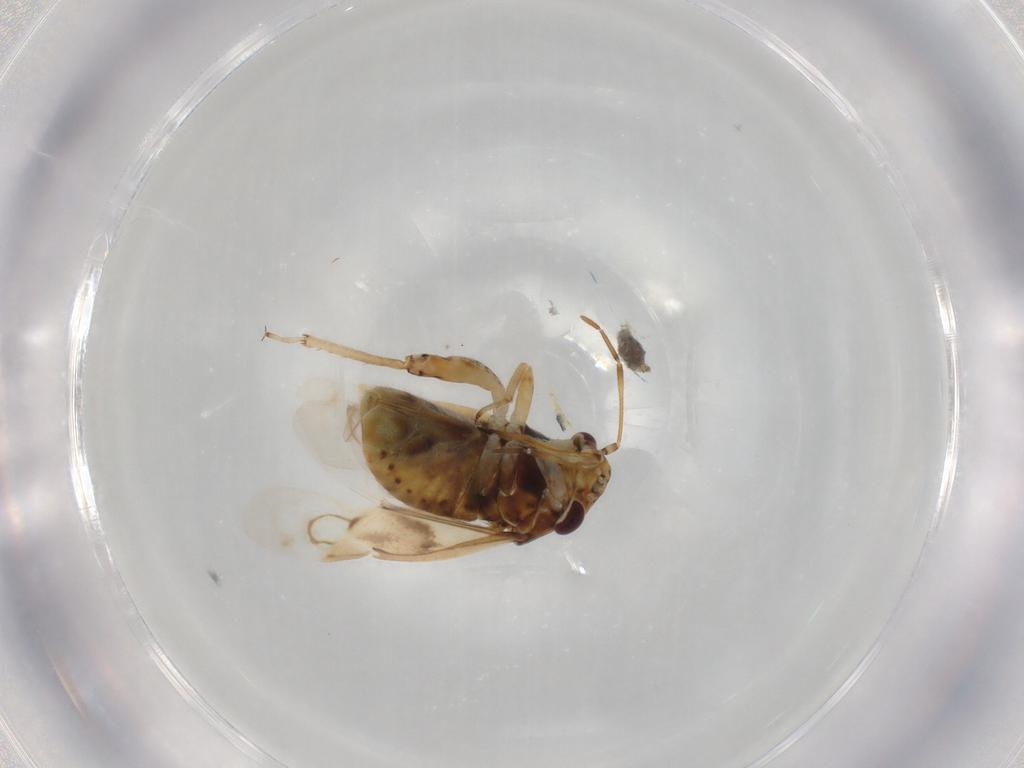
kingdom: Animalia
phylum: Arthropoda
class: Insecta
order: Hemiptera
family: Miridae
